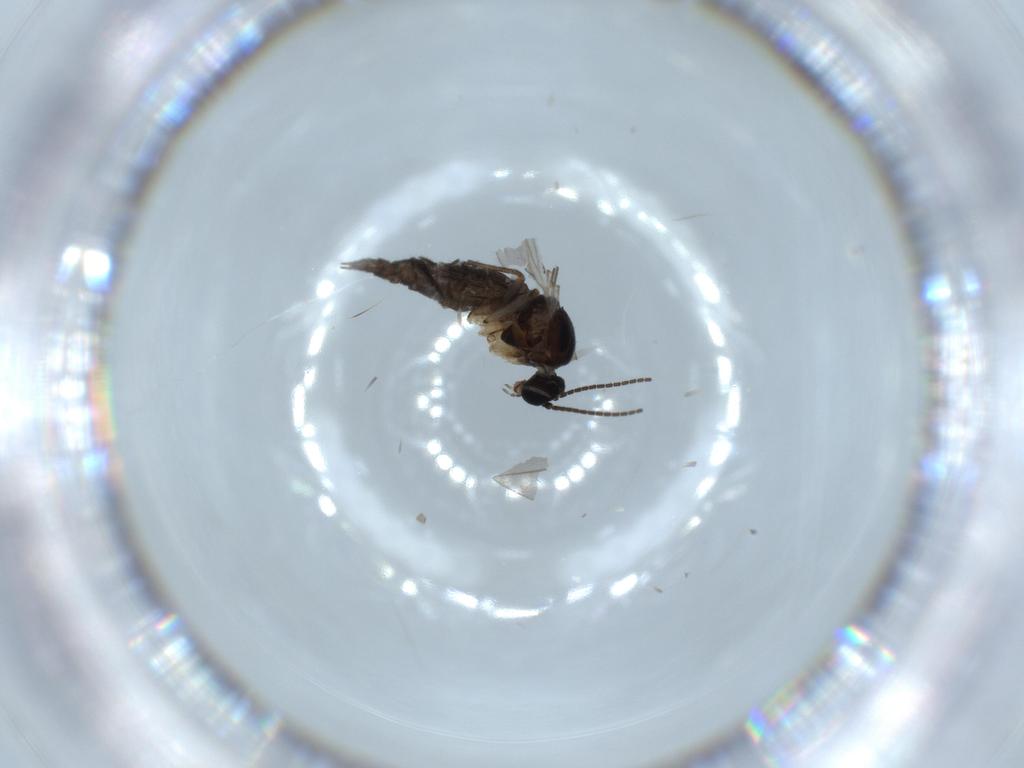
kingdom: Animalia
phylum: Arthropoda
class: Insecta
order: Diptera
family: Sciaridae
